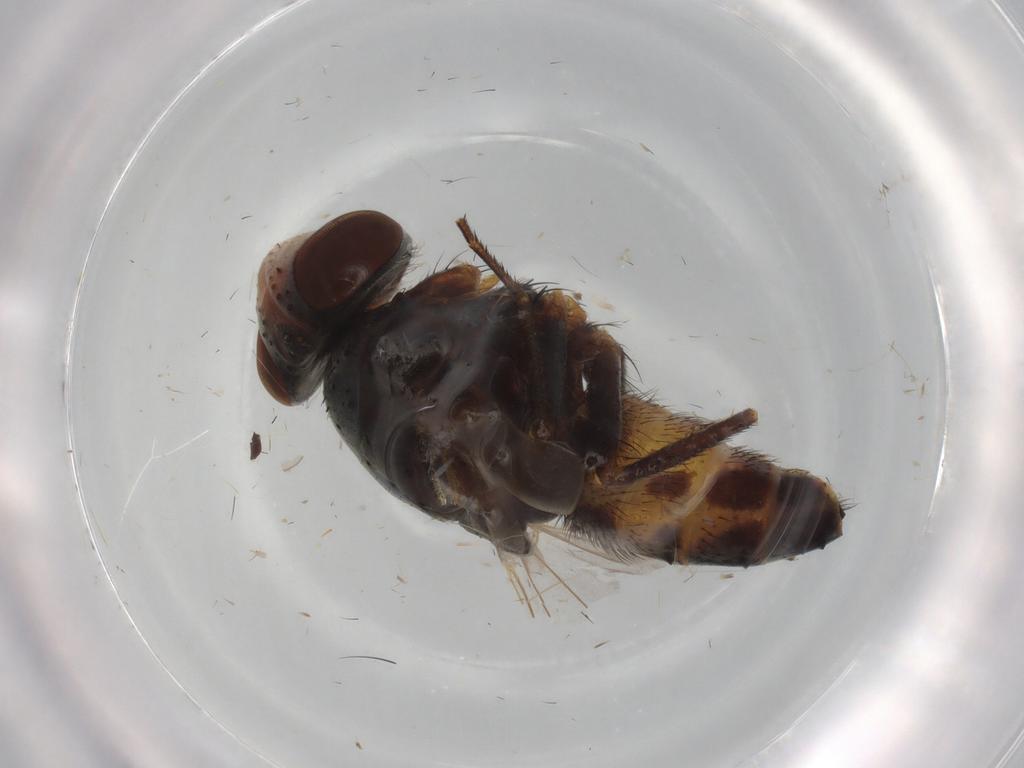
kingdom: Animalia
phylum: Arthropoda
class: Insecta
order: Diptera
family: Sarcophagidae
